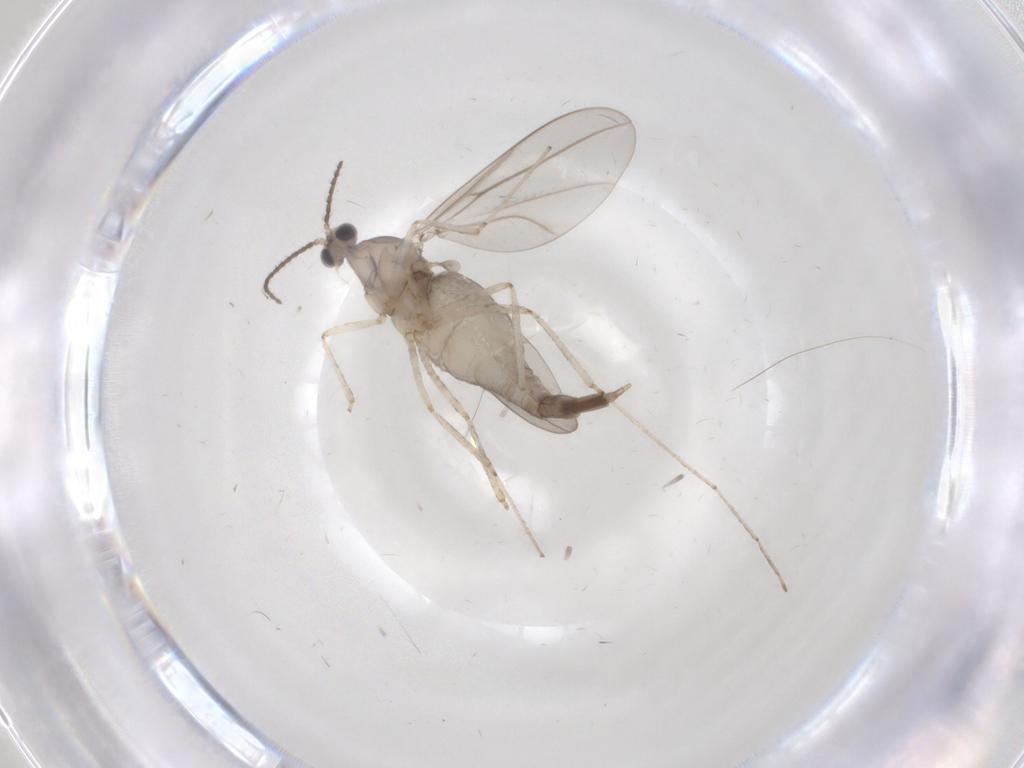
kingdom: Animalia
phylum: Arthropoda
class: Insecta
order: Diptera
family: Cecidomyiidae
